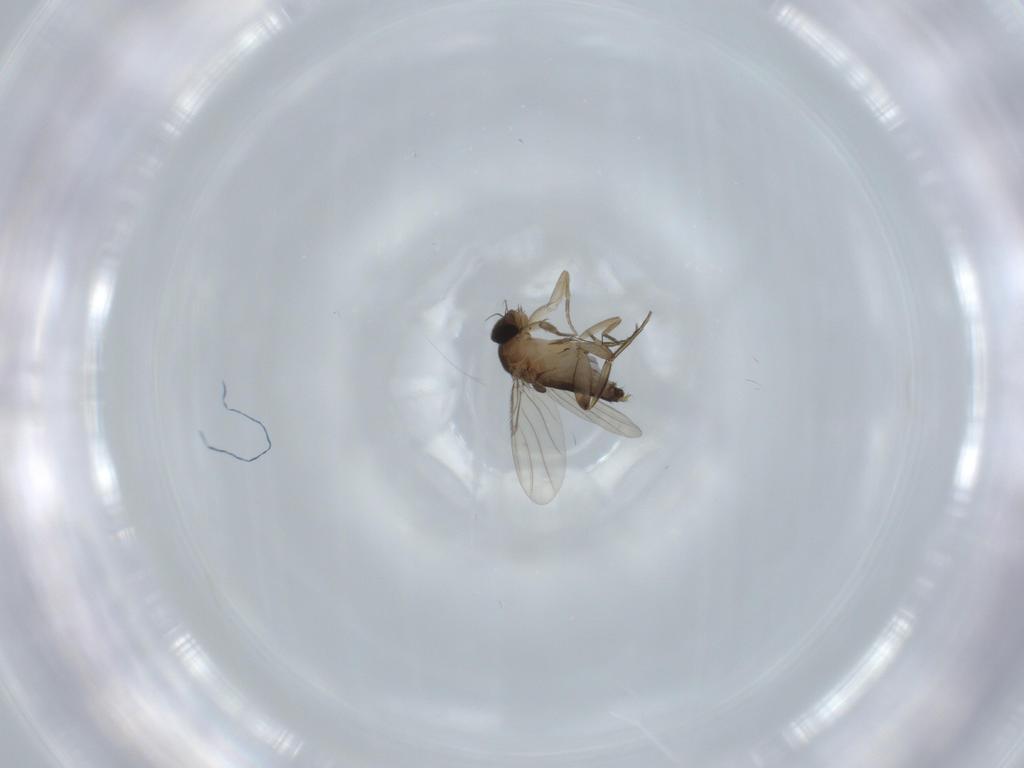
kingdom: Animalia
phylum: Arthropoda
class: Insecta
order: Diptera
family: Phoridae
